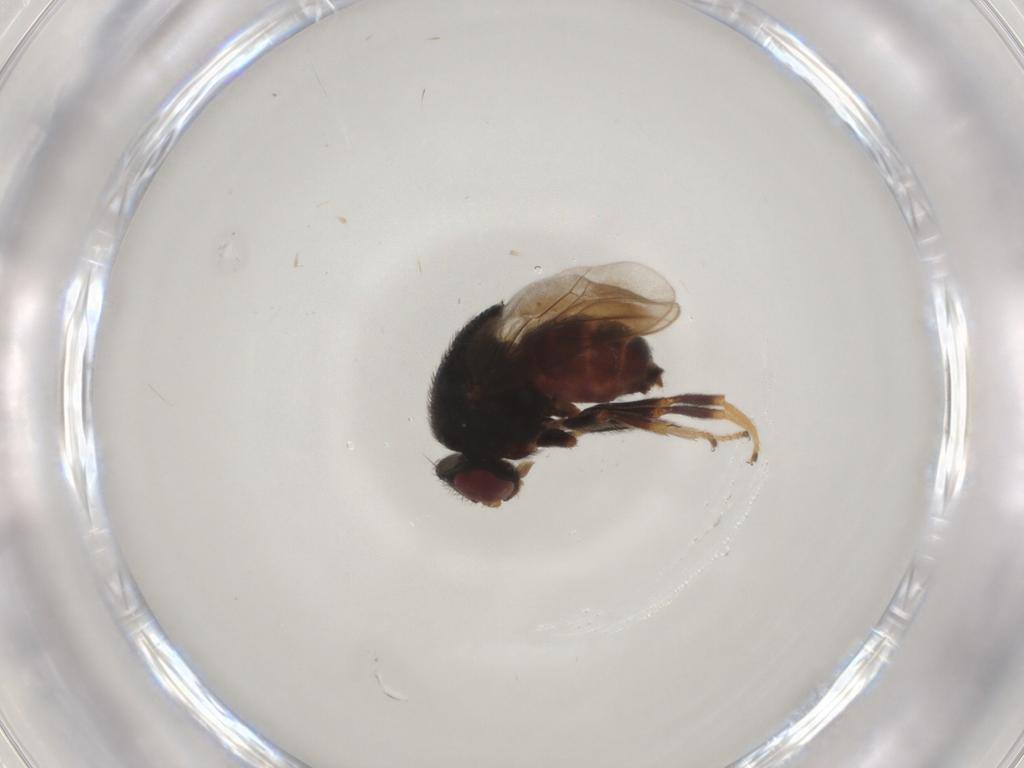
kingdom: Animalia
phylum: Arthropoda
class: Insecta
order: Diptera
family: Chloropidae
